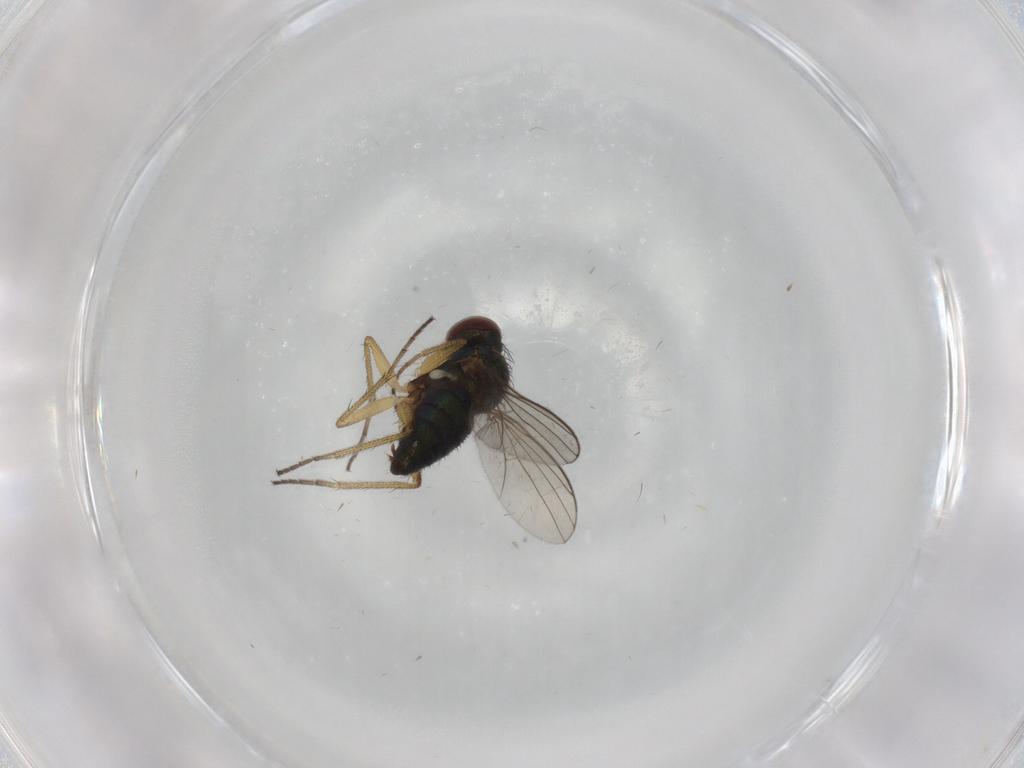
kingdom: Animalia
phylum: Arthropoda
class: Insecta
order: Diptera
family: Dolichopodidae
